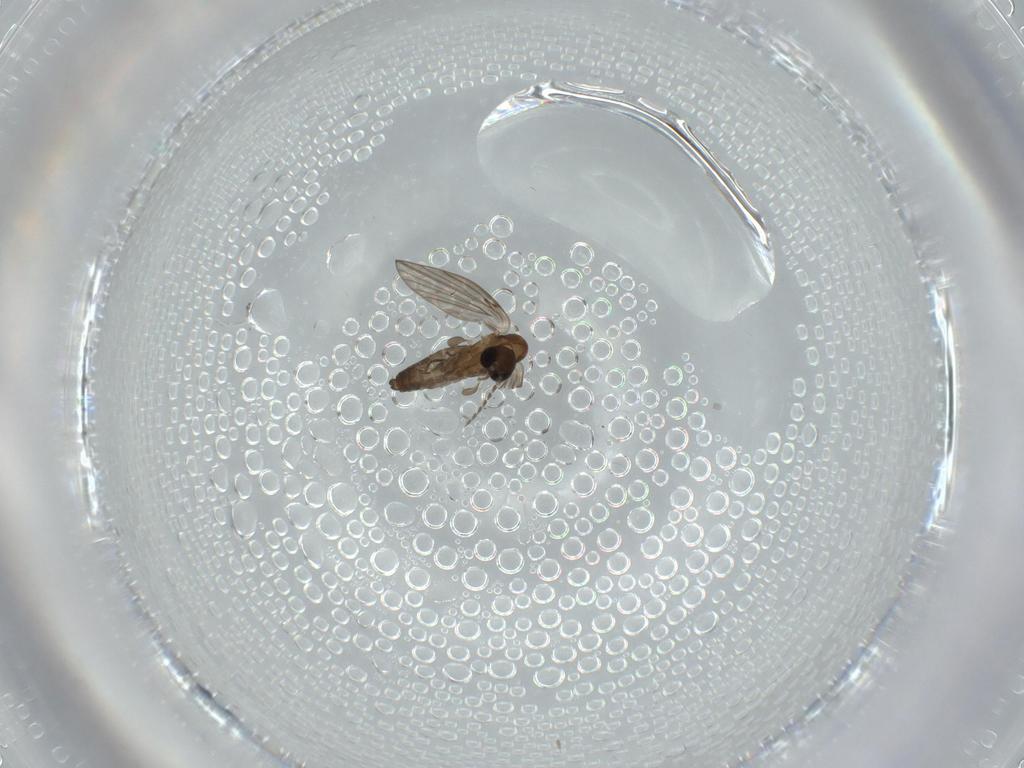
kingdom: Animalia
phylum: Arthropoda
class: Insecta
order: Diptera
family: Psychodidae
